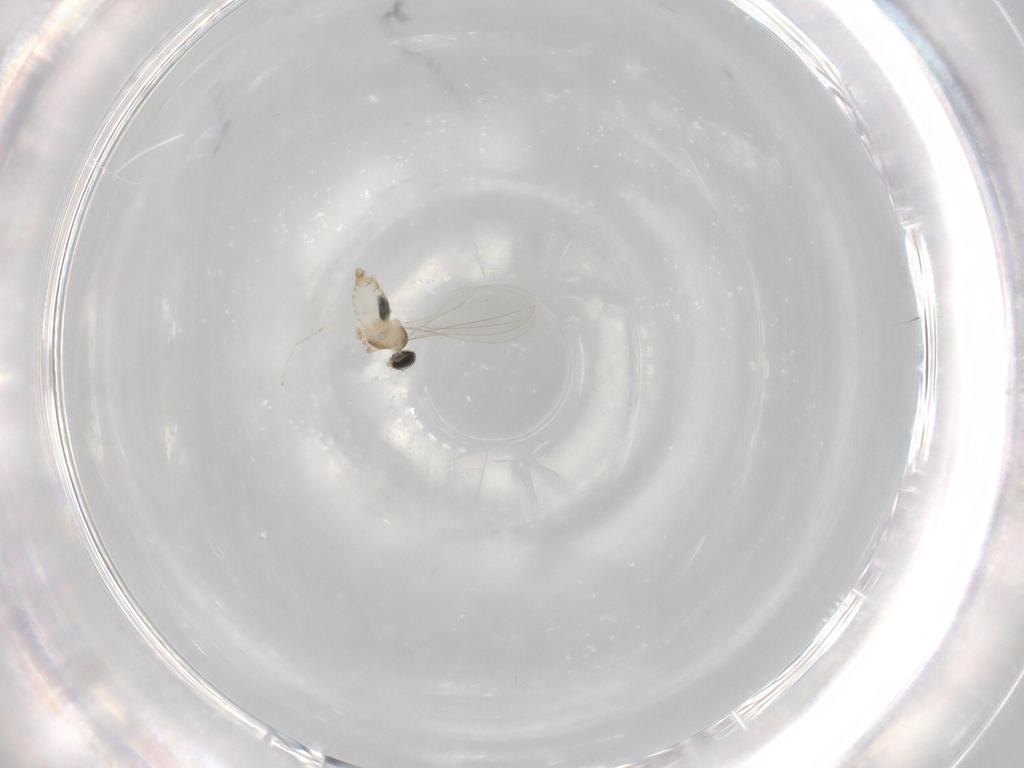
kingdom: Animalia
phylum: Arthropoda
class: Insecta
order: Diptera
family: Cecidomyiidae
